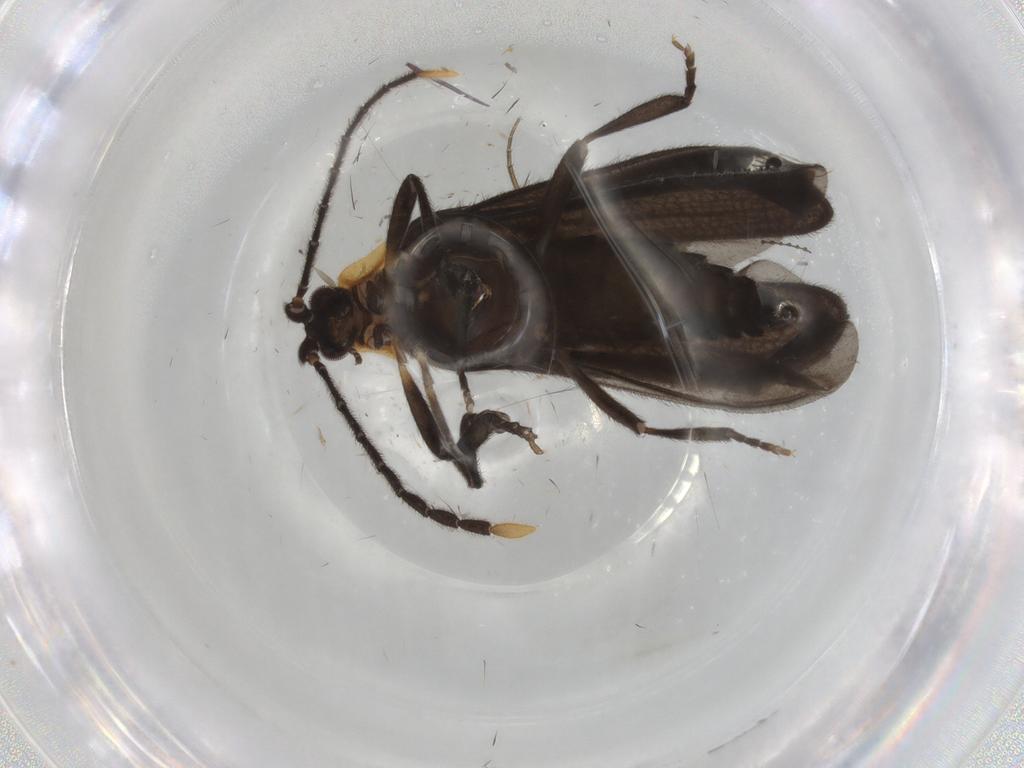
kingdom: Animalia
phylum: Arthropoda
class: Insecta
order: Coleoptera
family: Lycidae
